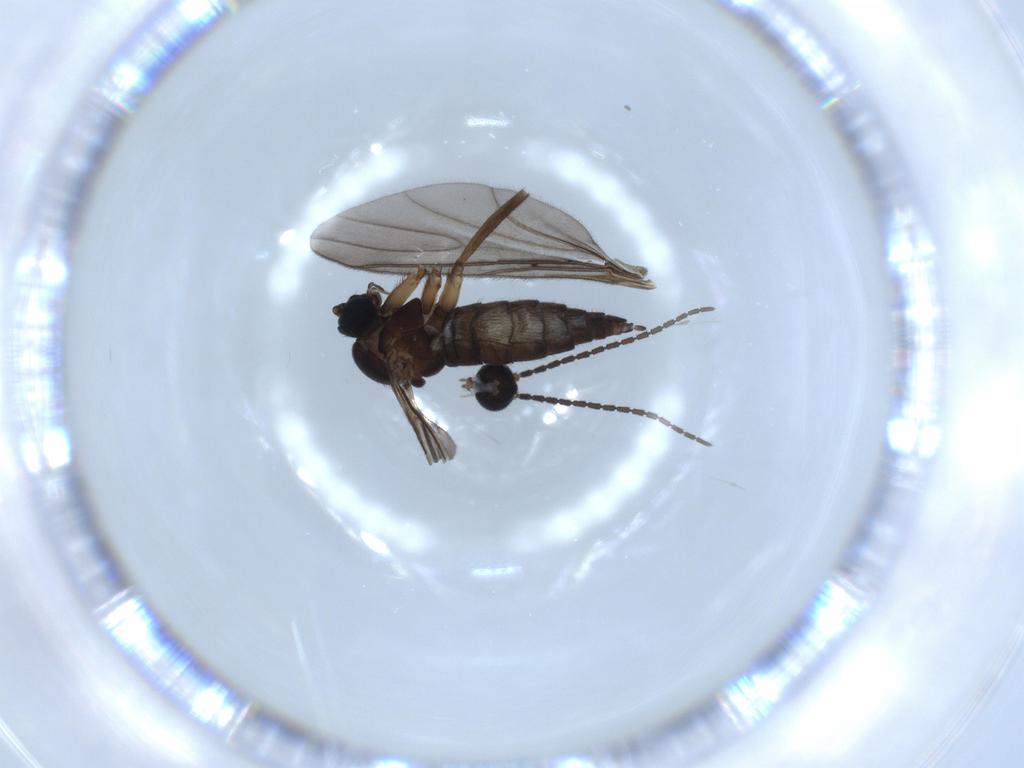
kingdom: Animalia
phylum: Arthropoda
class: Insecta
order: Diptera
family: Sciaridae
